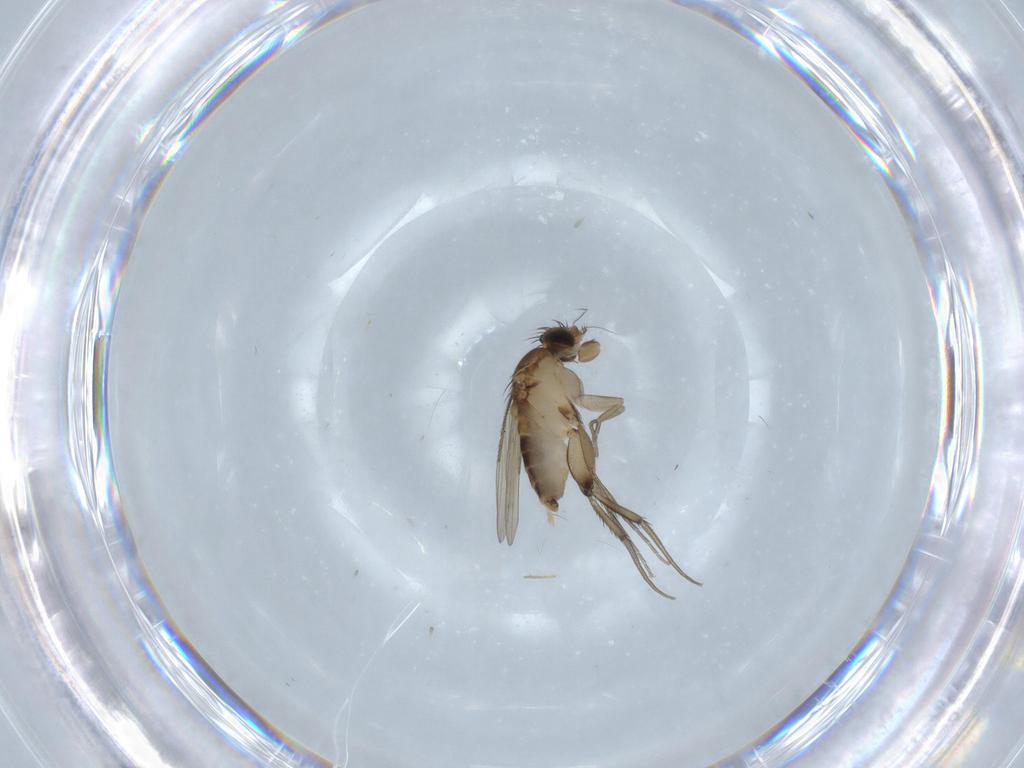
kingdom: Animalia
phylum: Arthropoda
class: Insecta
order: Diptera
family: Phoridae
